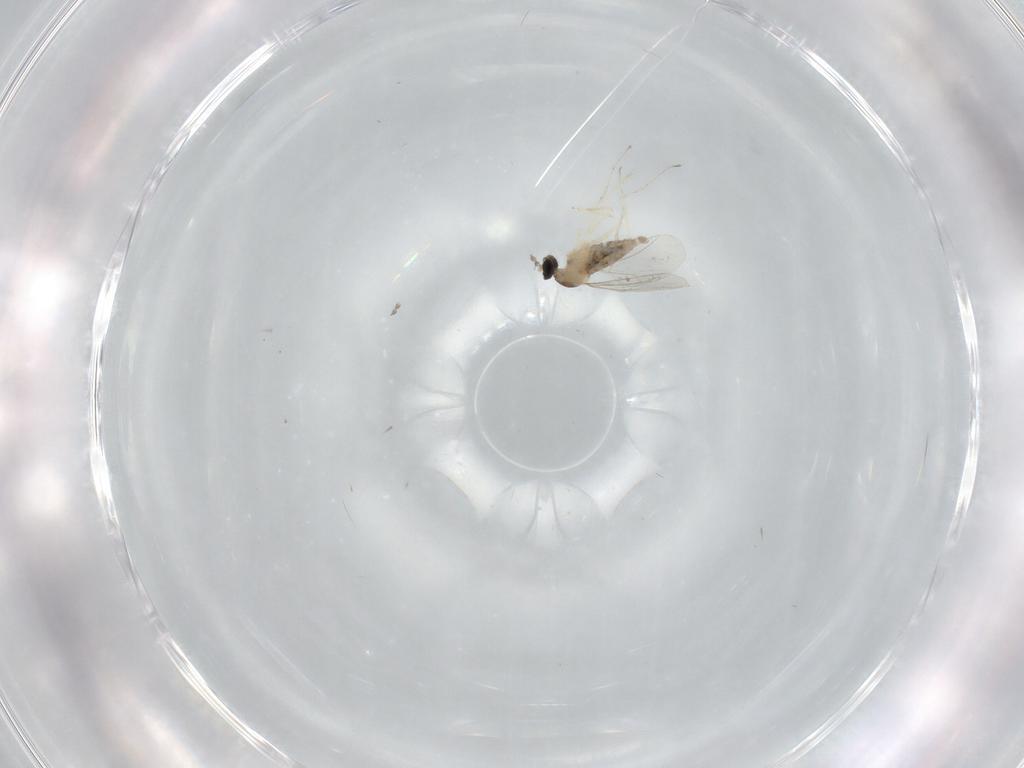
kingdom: Animalia
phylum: Arthropoda
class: Insecta
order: Diptera
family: Cecidomyiidae
